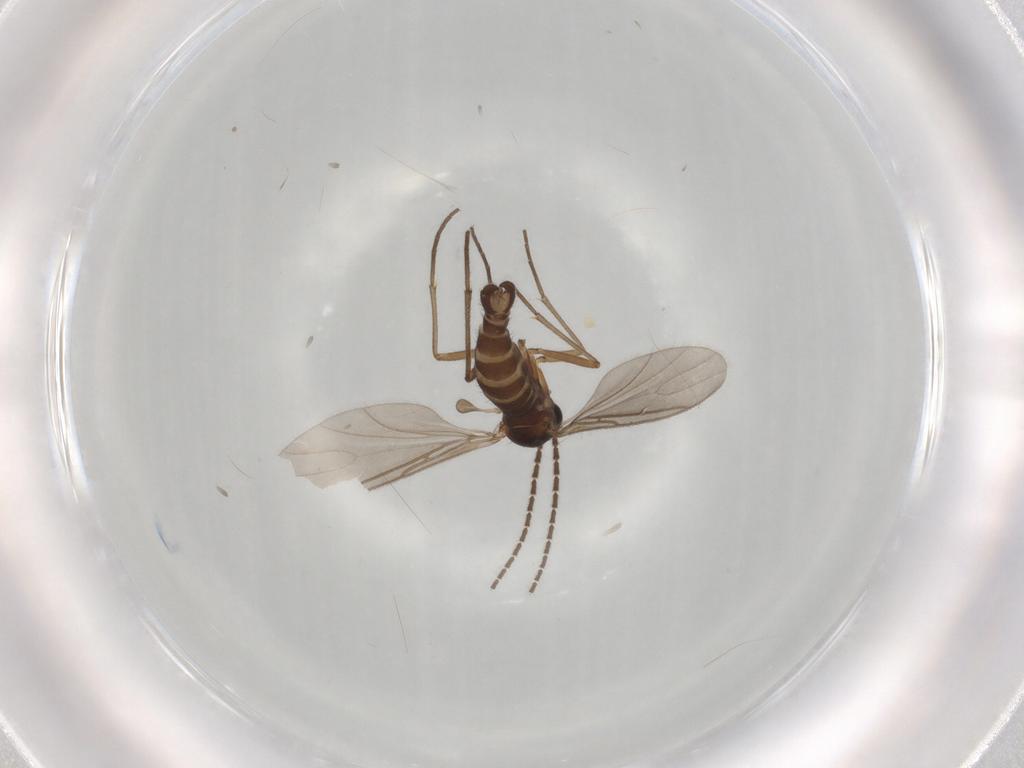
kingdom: Animalia
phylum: Arthropoda
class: Insecta
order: Diptera
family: Sciaridae
